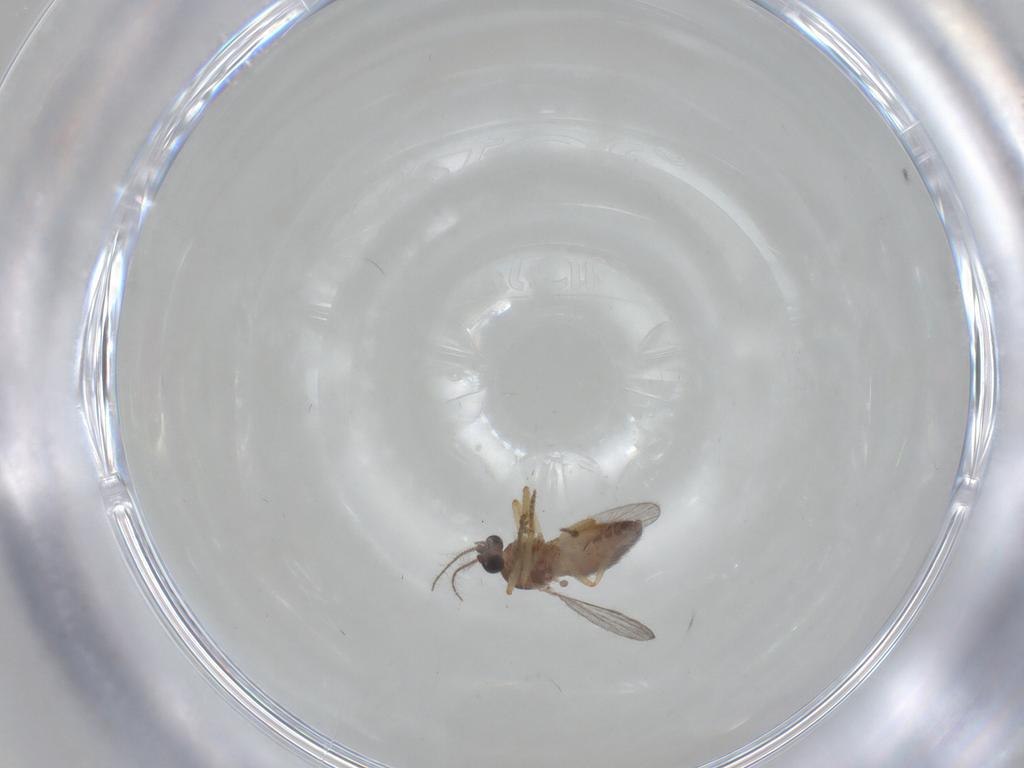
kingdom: Animalia
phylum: Arthropoda
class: Insecta
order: Diptera
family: Ceratopogonidae
